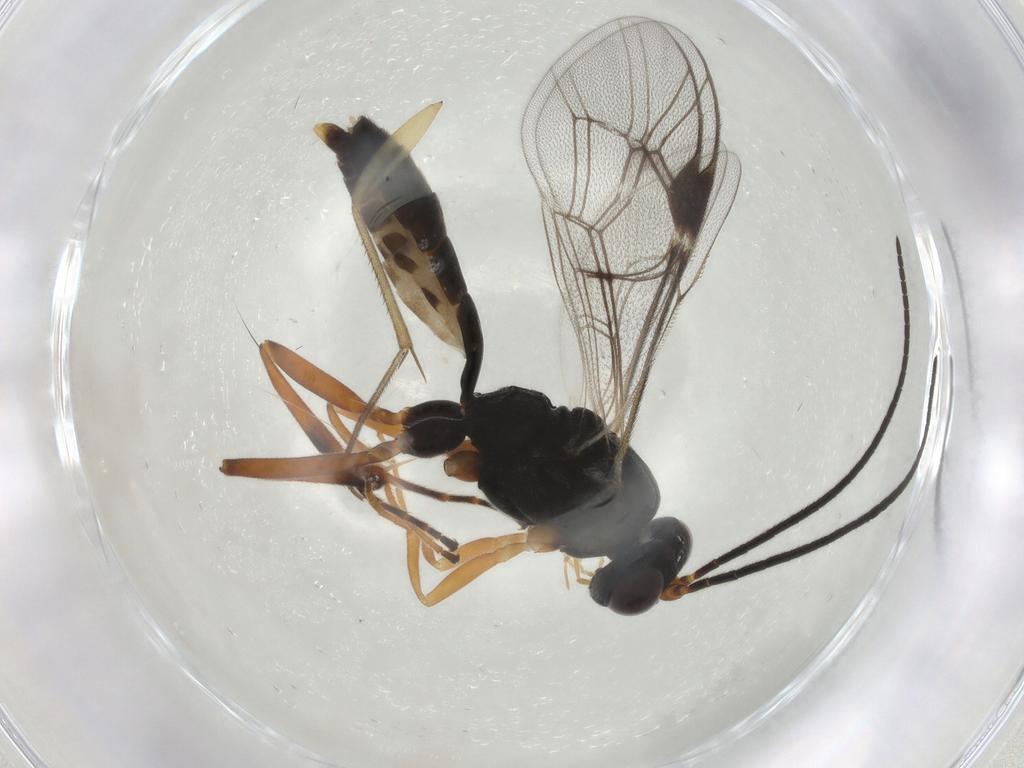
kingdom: Animalia
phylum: Arthropoda
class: Insecta
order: Hymenoptera
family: Ichneumonidae
